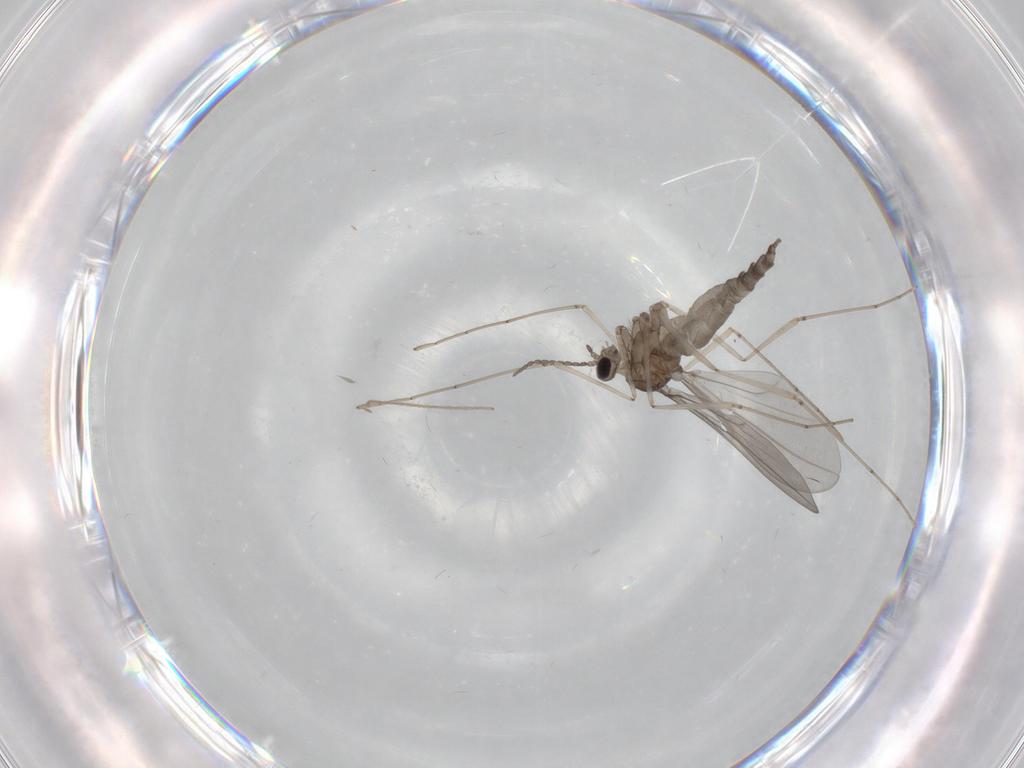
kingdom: Animalia
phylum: Arthropoda
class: Insecta
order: Diptera
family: Cecidomyiidae
